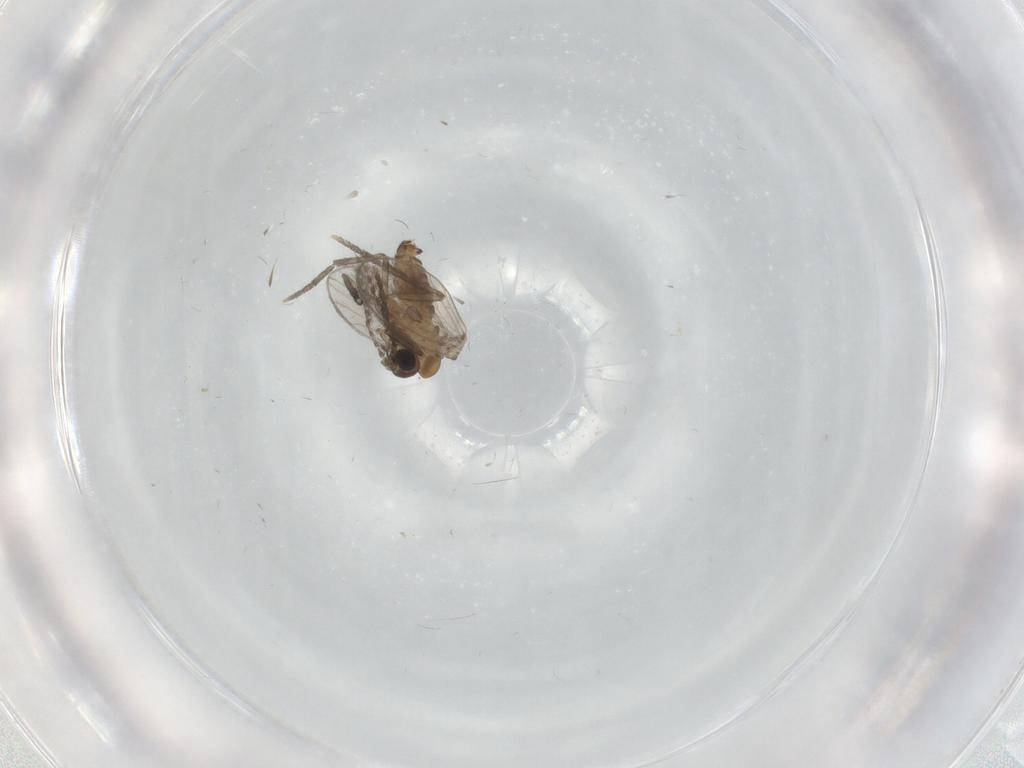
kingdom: Animalia
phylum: Arthropoda
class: Insecta
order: Diptera
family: Psychodidae
